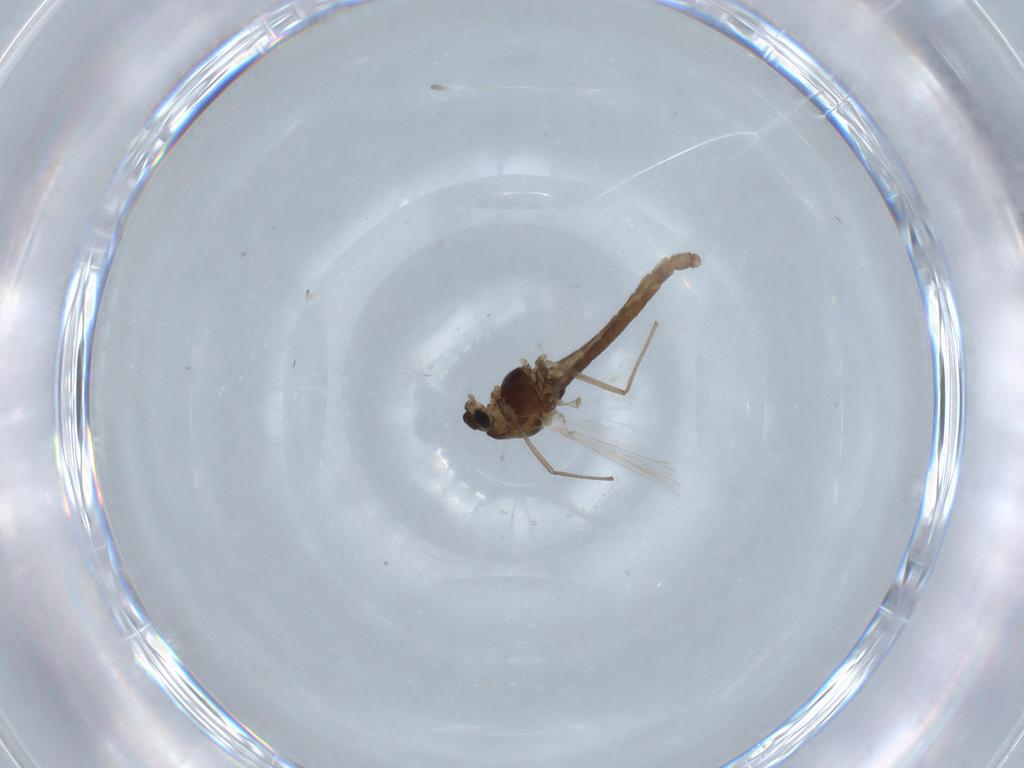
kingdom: Animalia
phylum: Arthropoda
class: Insecta
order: Diptera
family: Chironomidae
